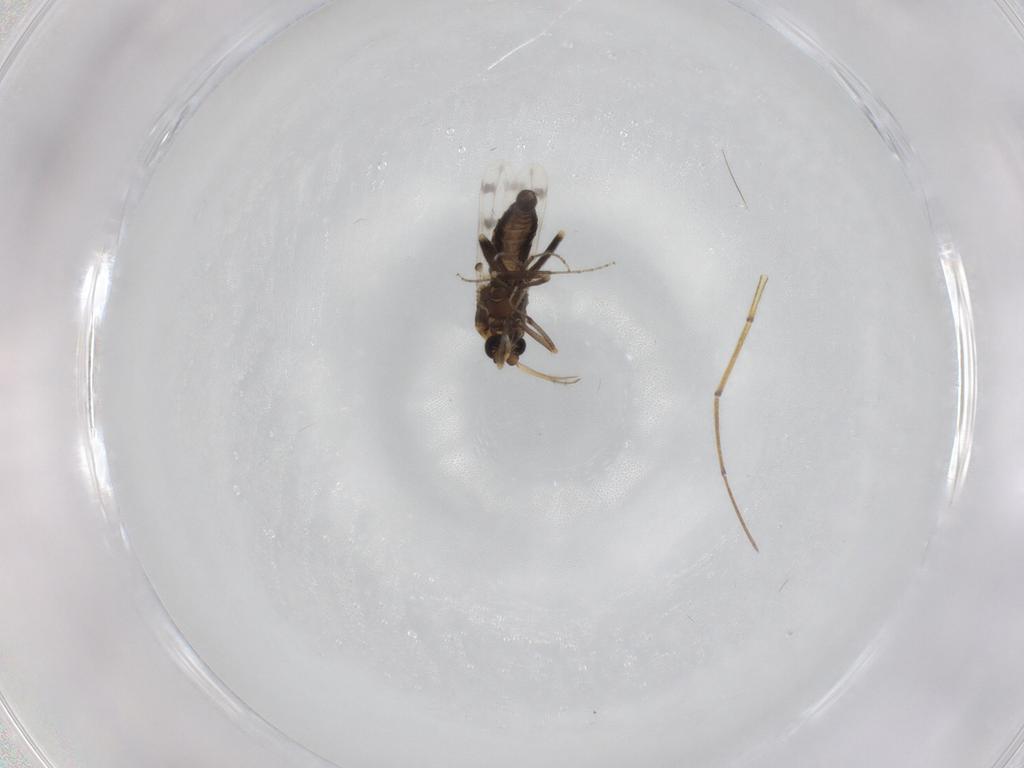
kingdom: Animalia
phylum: Arthropoda
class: Insecta
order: Diptera
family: Ceratopogonidae
